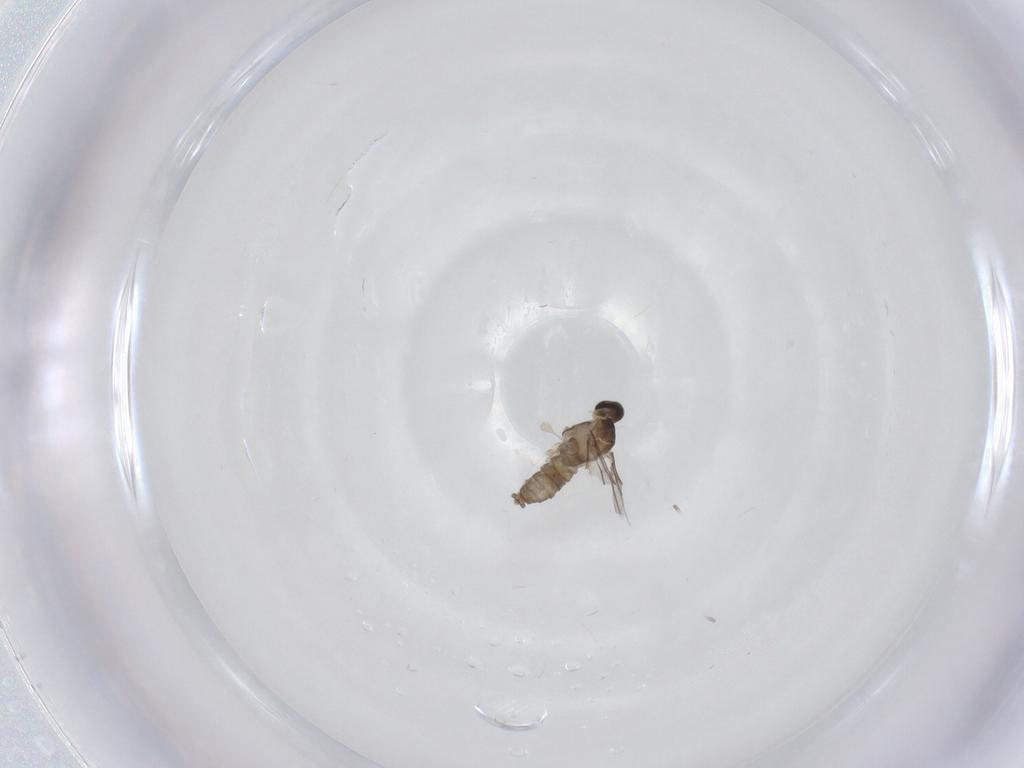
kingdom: Animalia
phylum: Arthropoda
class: Insecta
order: Diptera
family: Cecidomyiidae
